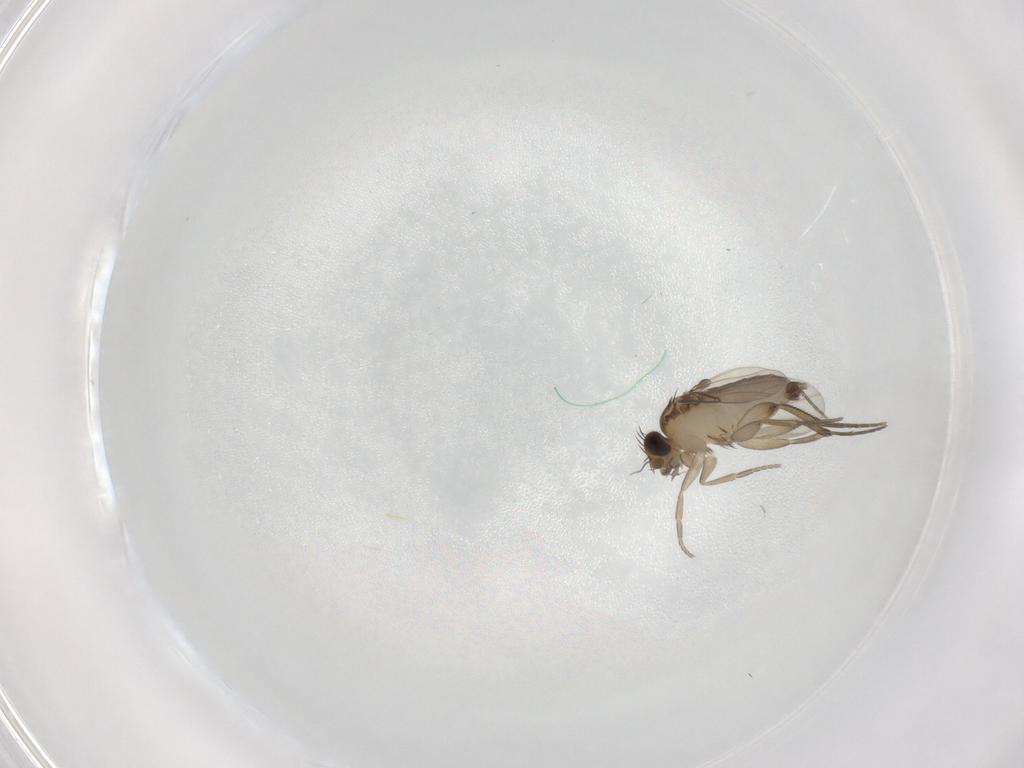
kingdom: Animalia
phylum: Arthropoda
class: Insecta
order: Diptera
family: Phoridae
